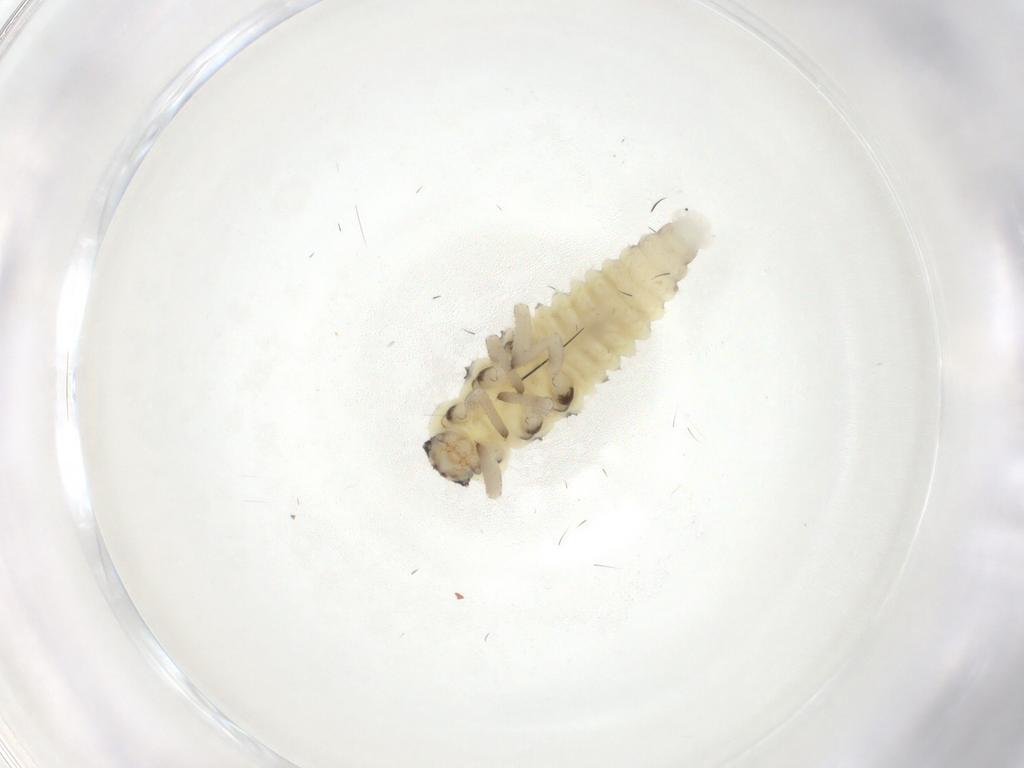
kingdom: Animalia
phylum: Arthropoda
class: Insecta
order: Coleoptera
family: Coccinellidae
